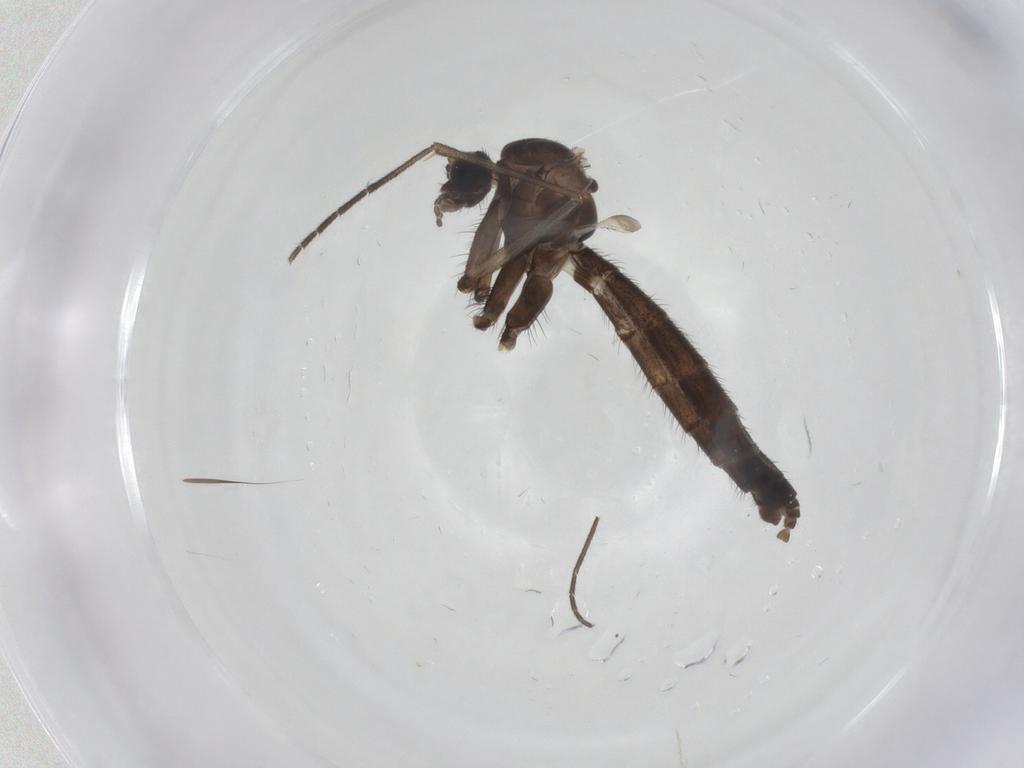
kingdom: Animalia
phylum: Arthropoda
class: Insecta
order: Diptera
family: Keroplatidae
